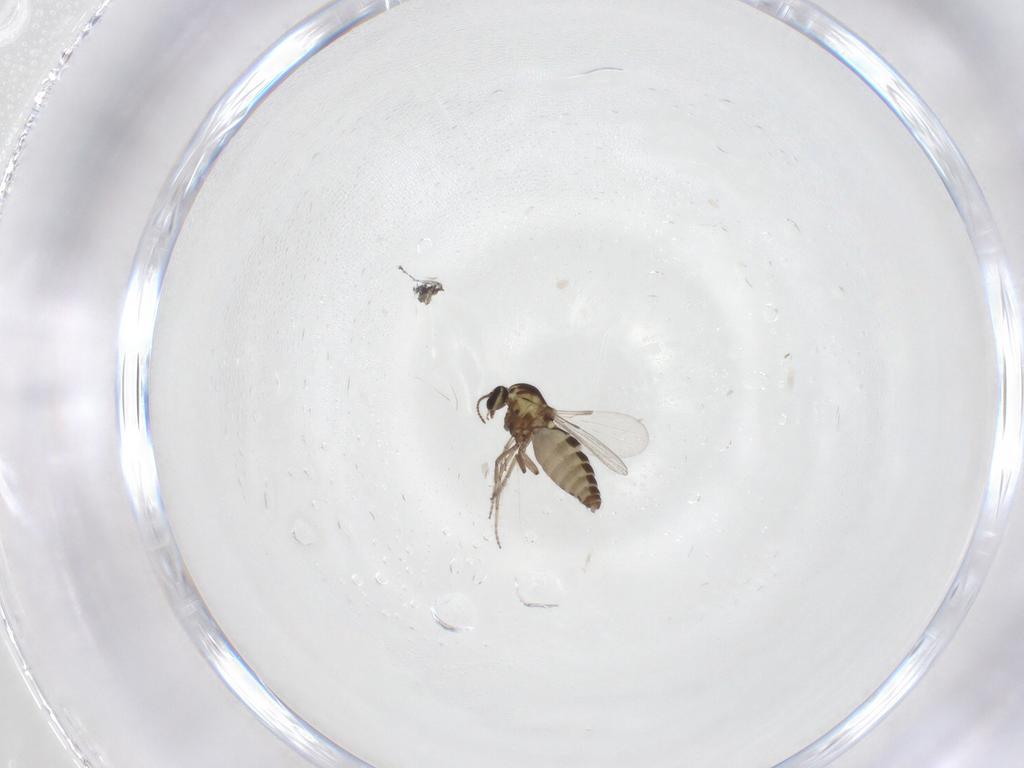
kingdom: Animalia
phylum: Arthropoda
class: Insecta
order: Diptera
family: Ceratopogonidae
